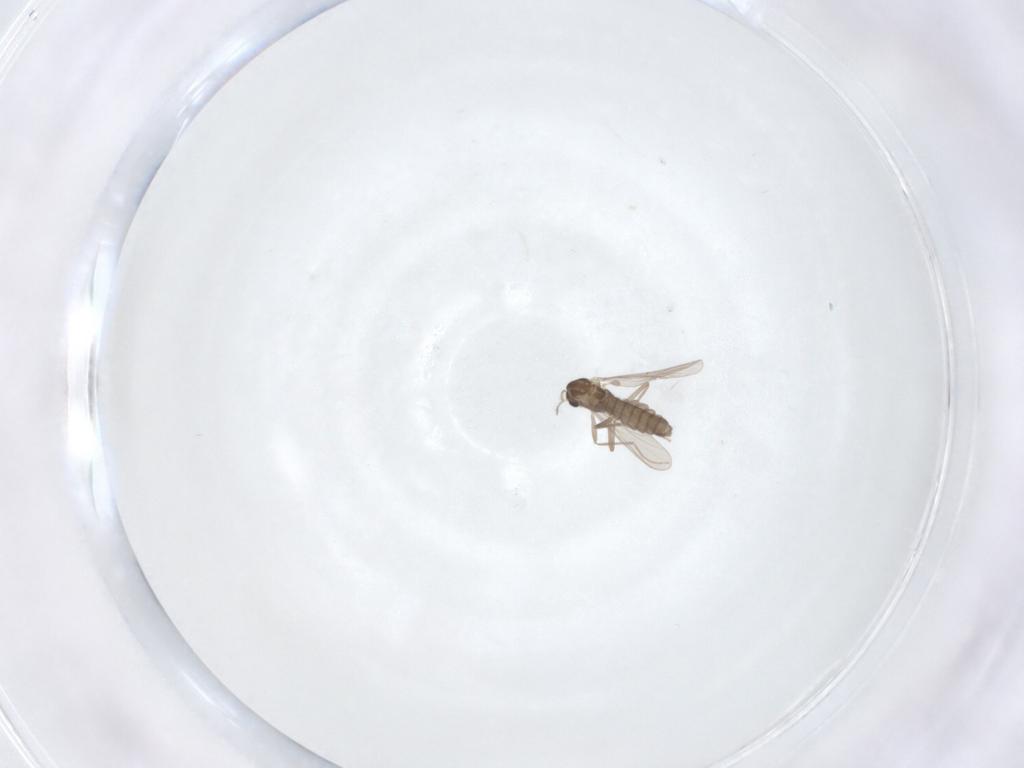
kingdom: Animalia
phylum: Arthropoda
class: Insecta
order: Diptera
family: Chironomidae
